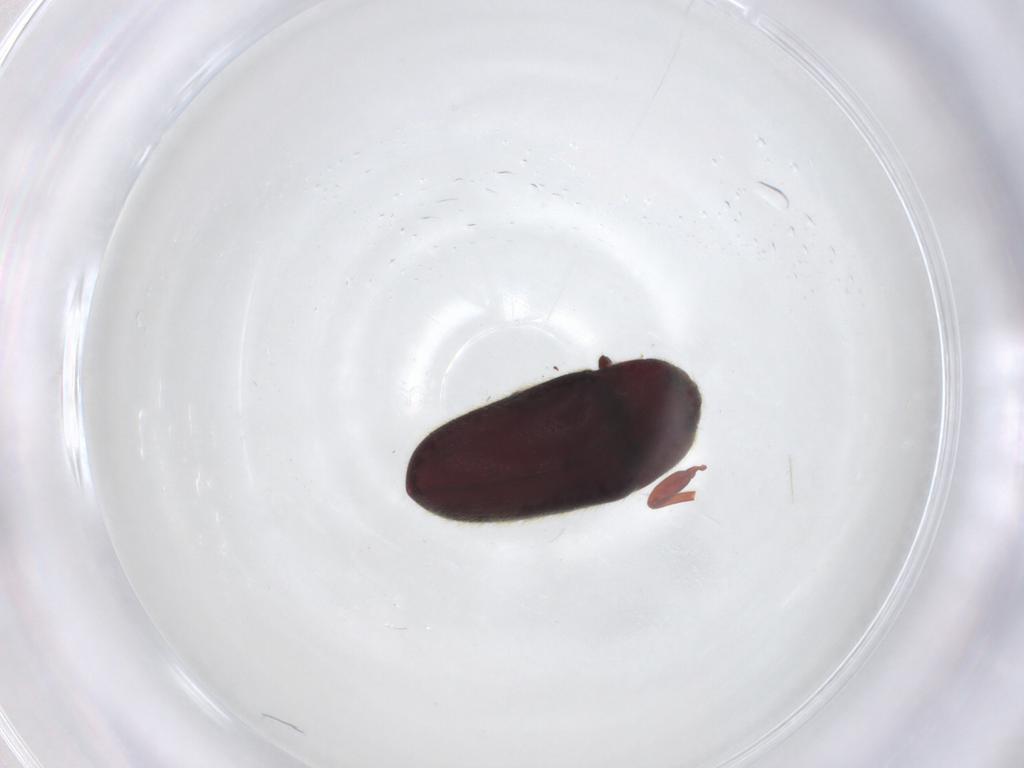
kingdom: Animalia
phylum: Arthropoda
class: Insecta
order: Coleoptera
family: Throscidae
